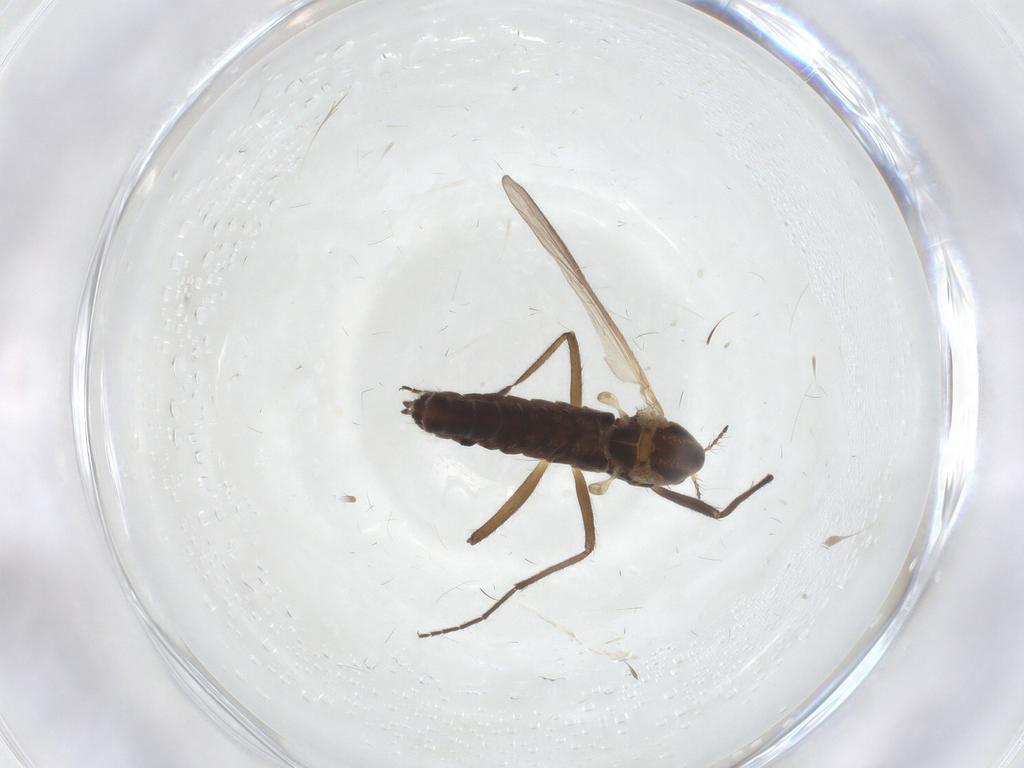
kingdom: Animalia
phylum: Arthropoda
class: Insecta
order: Diptera
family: Chironomidae
